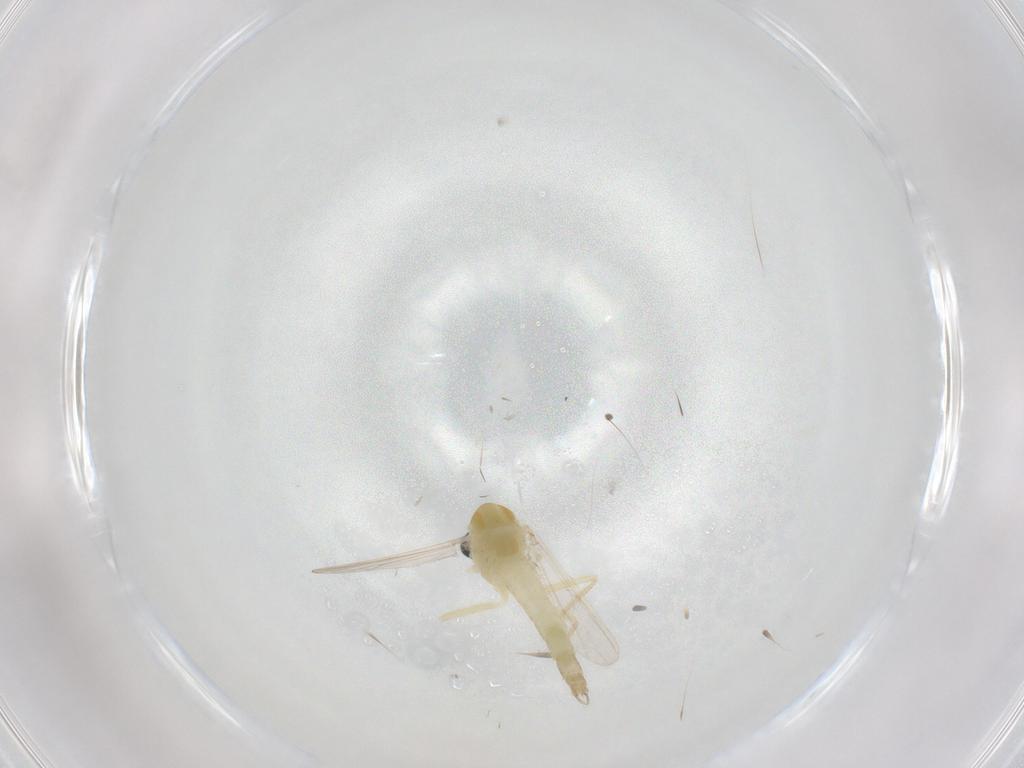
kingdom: Animalia
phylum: Arthropoda
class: Insecta
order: Diptera
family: Chironomidae
